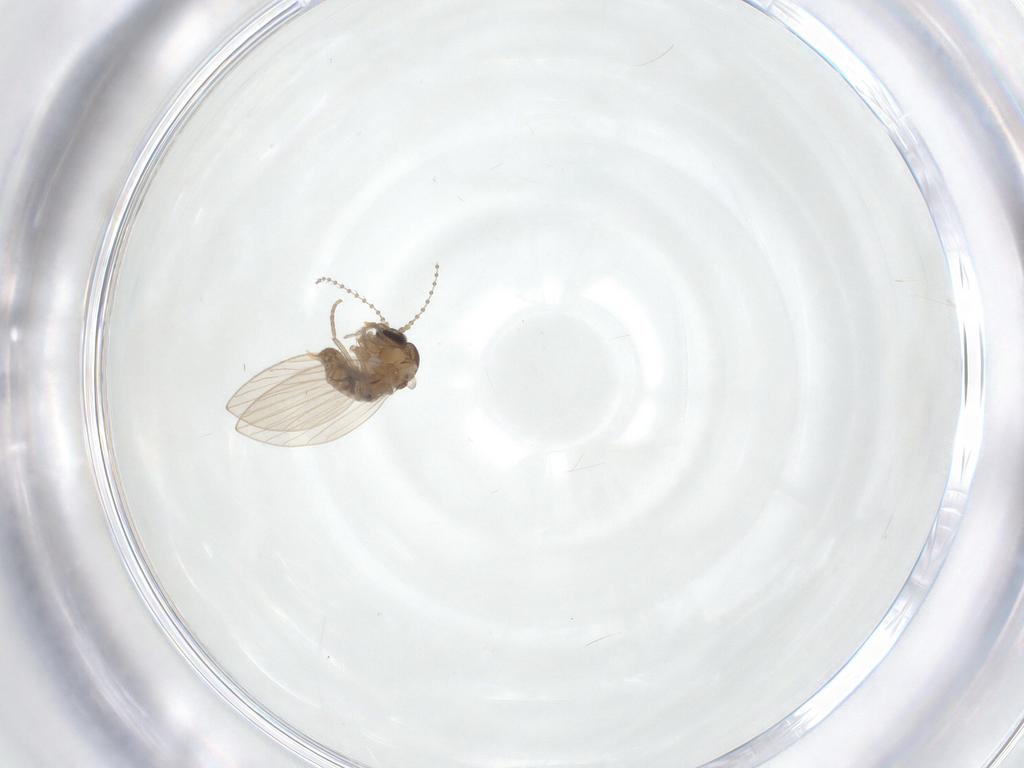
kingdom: Animalia
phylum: Arthropoda
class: Insecta
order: Diptera
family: Psychodidae
